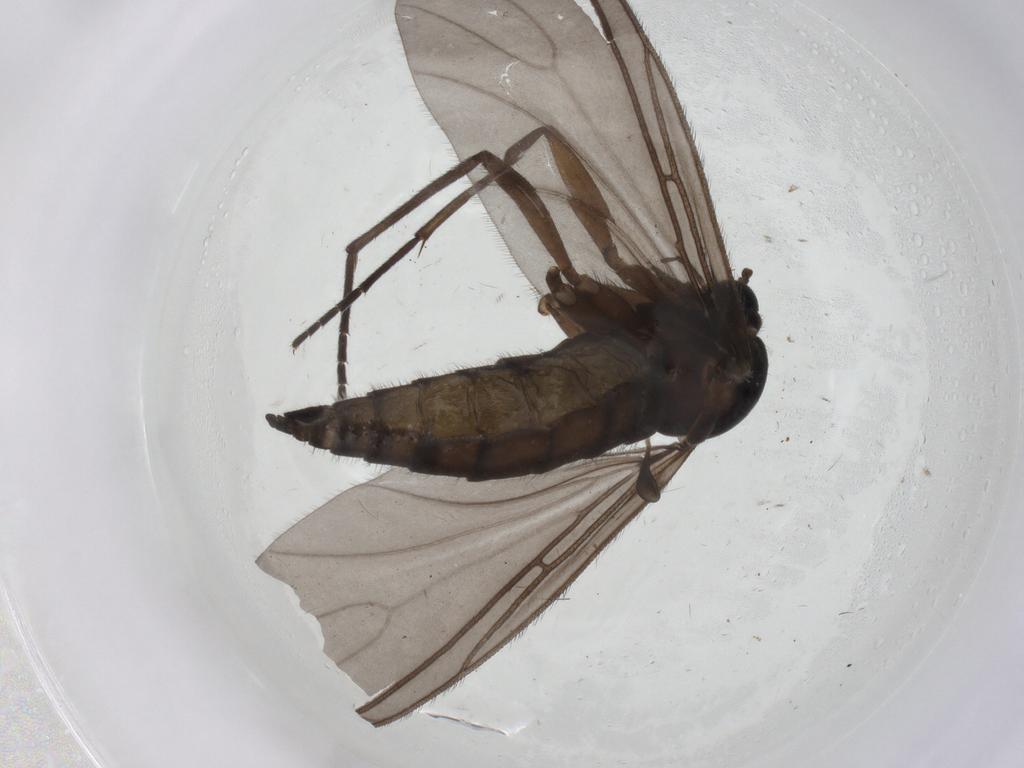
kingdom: Animalia
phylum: Arthropoda
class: Insecta
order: Diptera
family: Sciaridae
